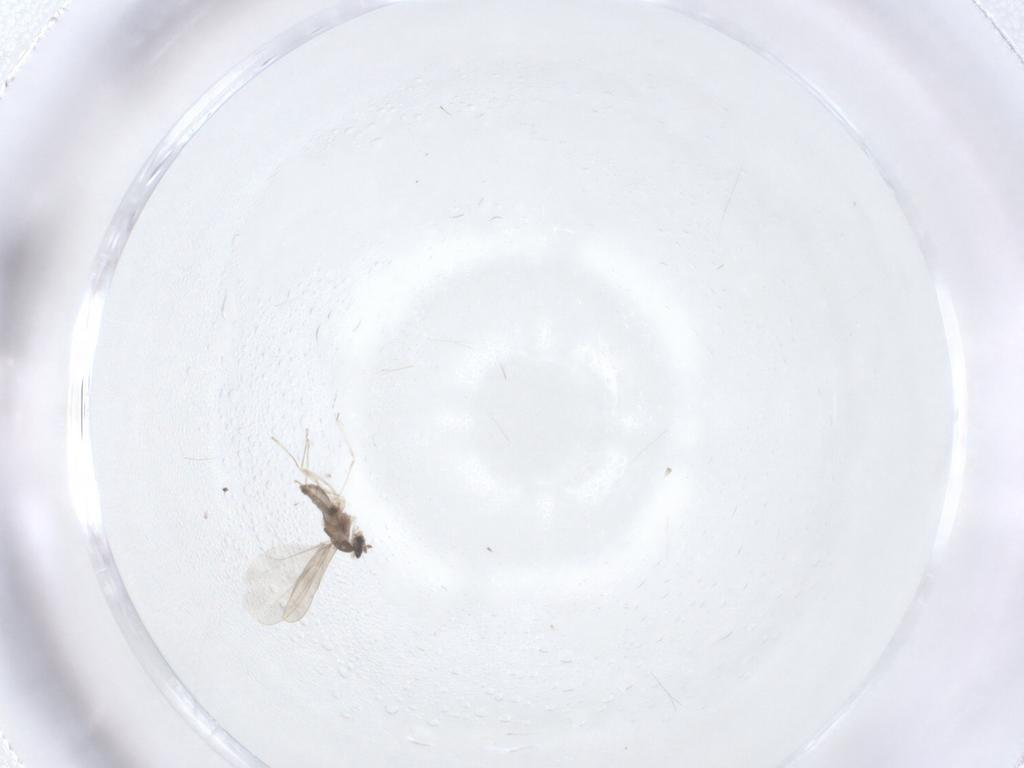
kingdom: Animalia
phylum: Arthropoda
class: Insecta
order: Diptera
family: Cecidomyiidae
